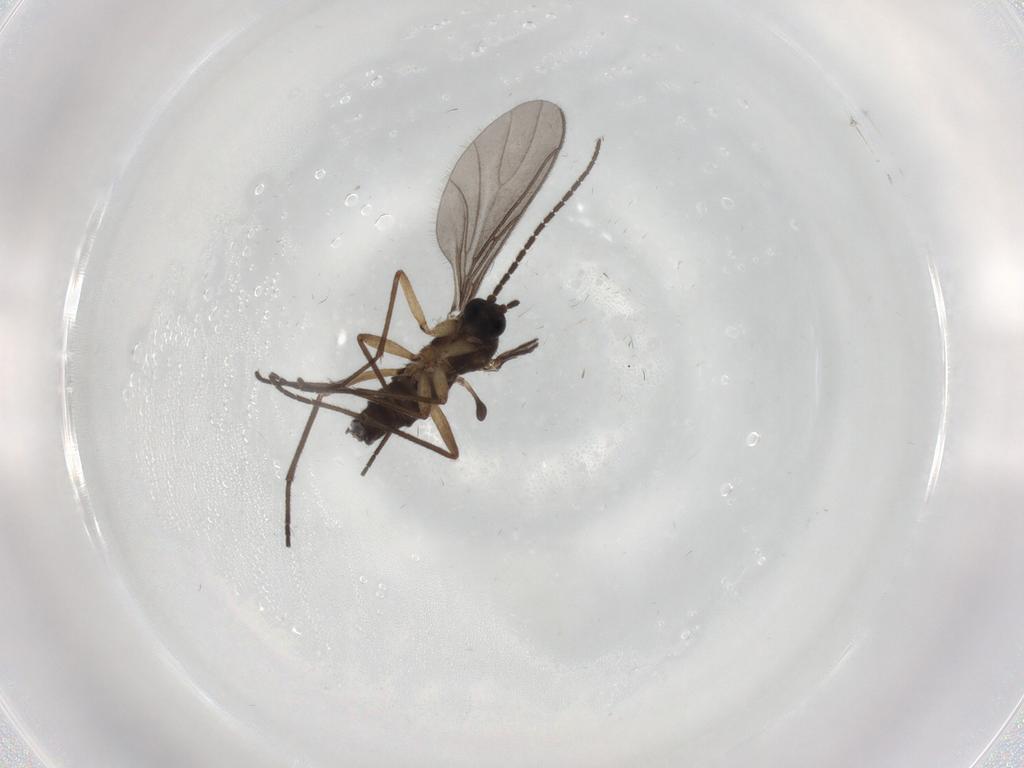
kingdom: Animalia
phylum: Arthropoda
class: Insecta
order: Diptera
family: Sciaridae
